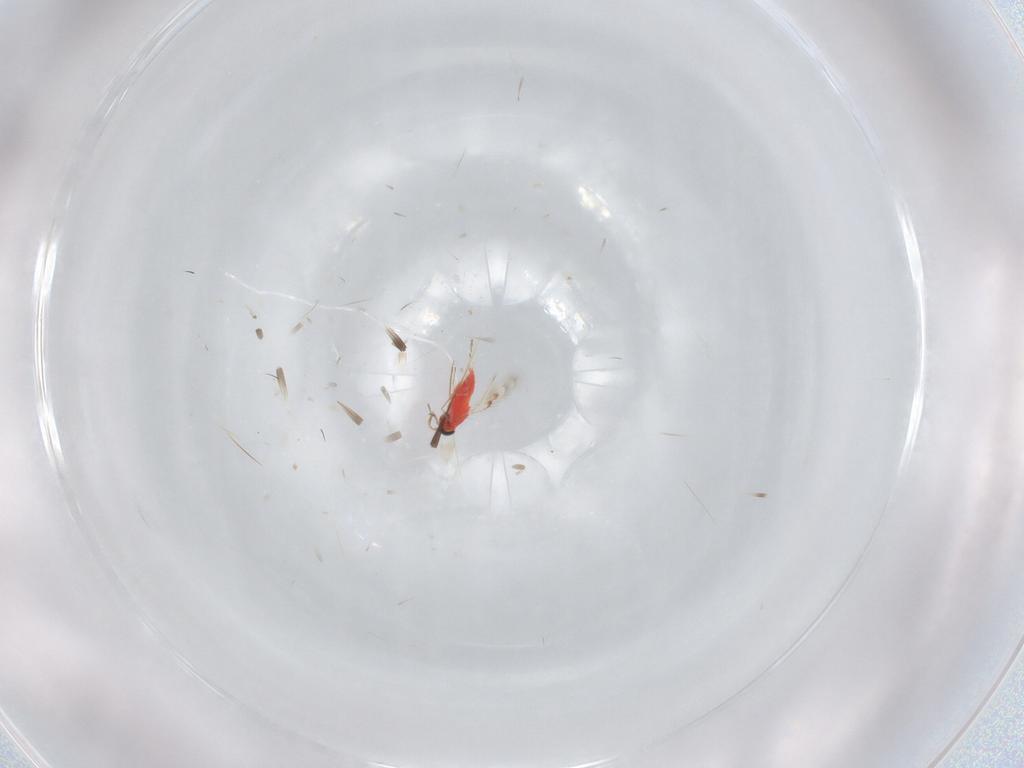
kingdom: Animalia
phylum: Arthropoda
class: Insecta
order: Hymenoptera
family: Trichogrammatidae
